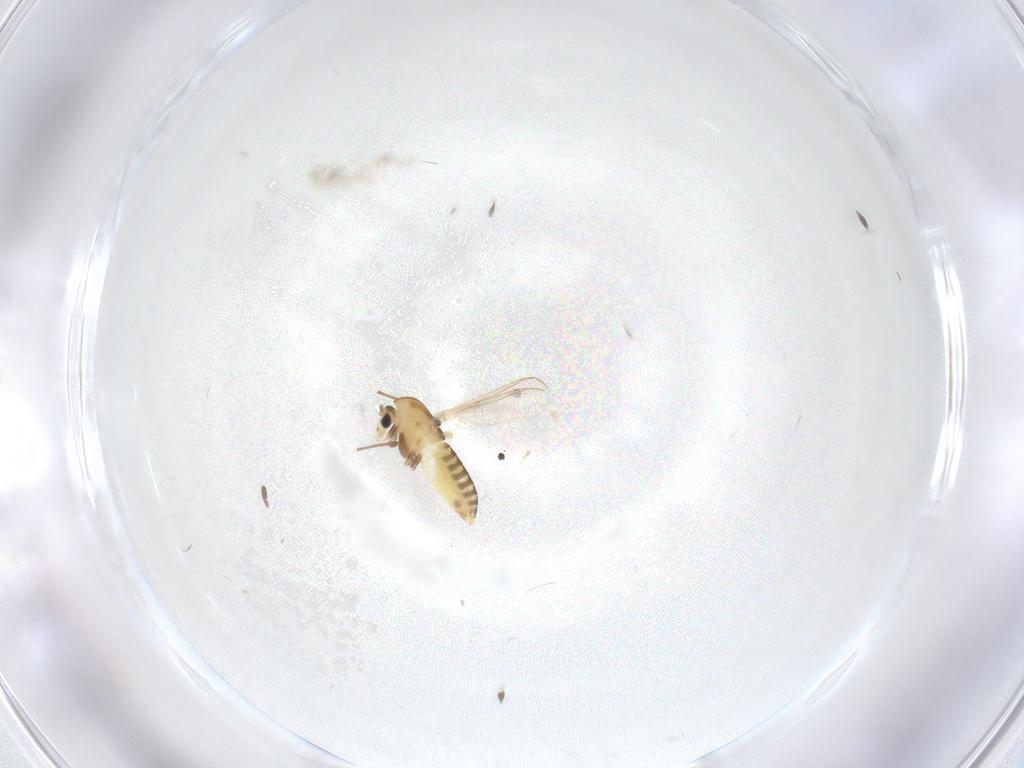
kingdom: Animalia
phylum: Arthropoda
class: Insecta
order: Diptera
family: Chironomidae
